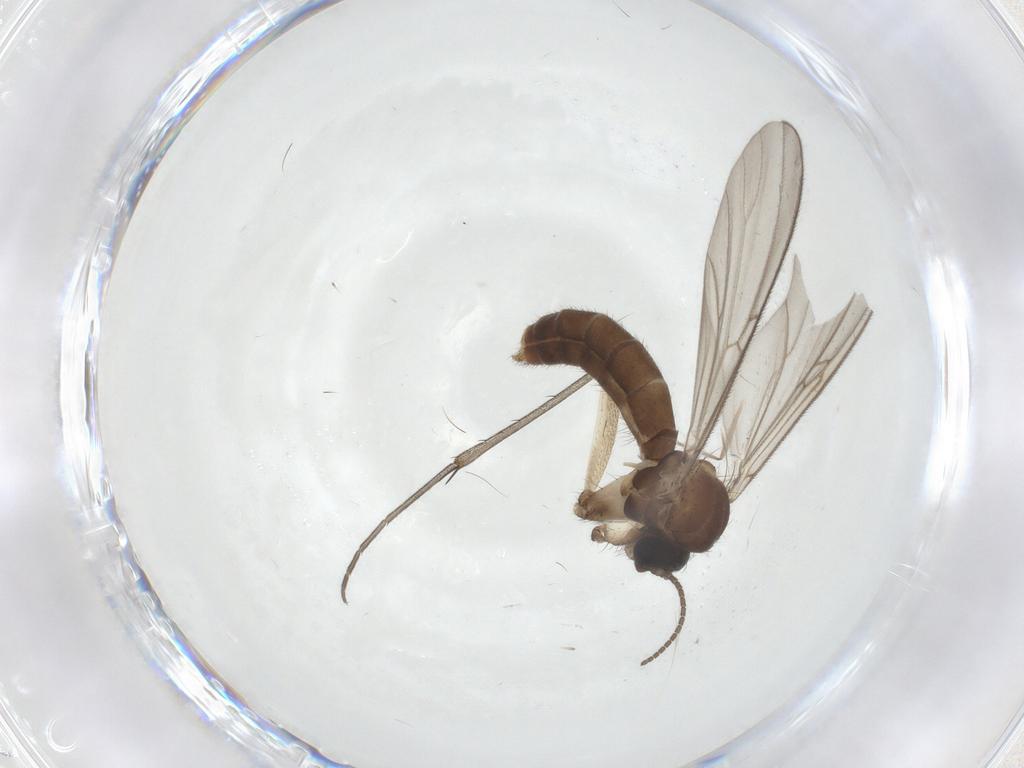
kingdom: Animalia
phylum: Arthropoda
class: Insecta
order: Diptera
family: Mycetophilidae
